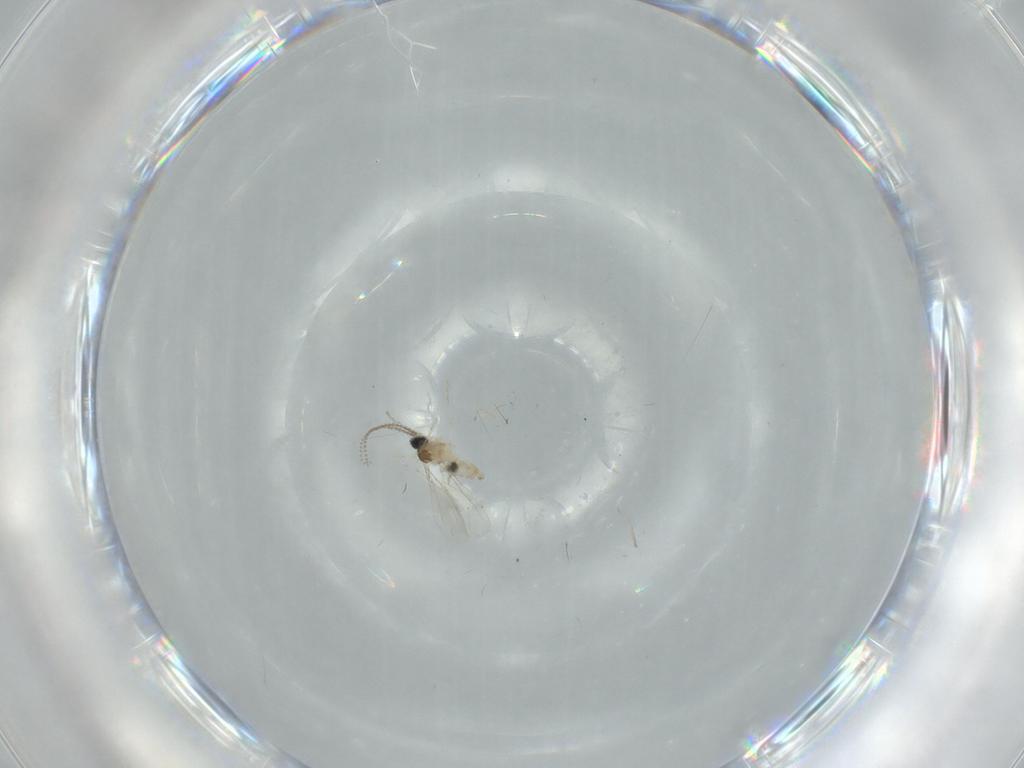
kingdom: Animalia
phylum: Arthropoda
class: Insecta
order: Diptera
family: Cecidomyiidae
